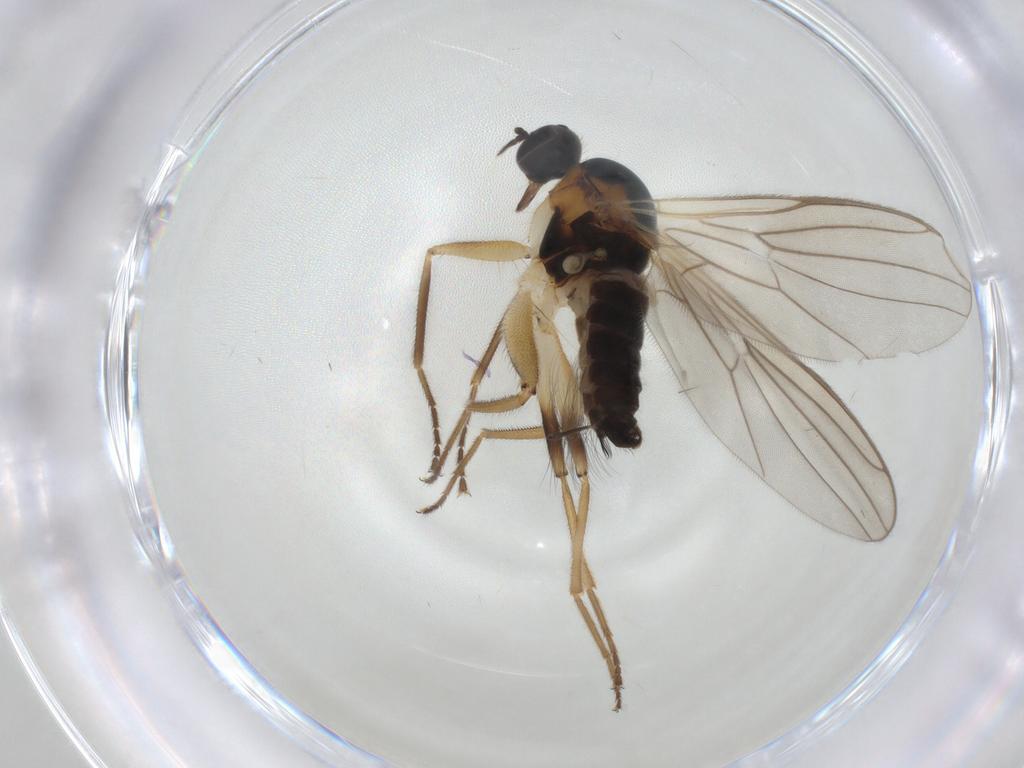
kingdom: Animalia
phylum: Arthropoda
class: Insecta
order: Diptera
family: Hybotidae
